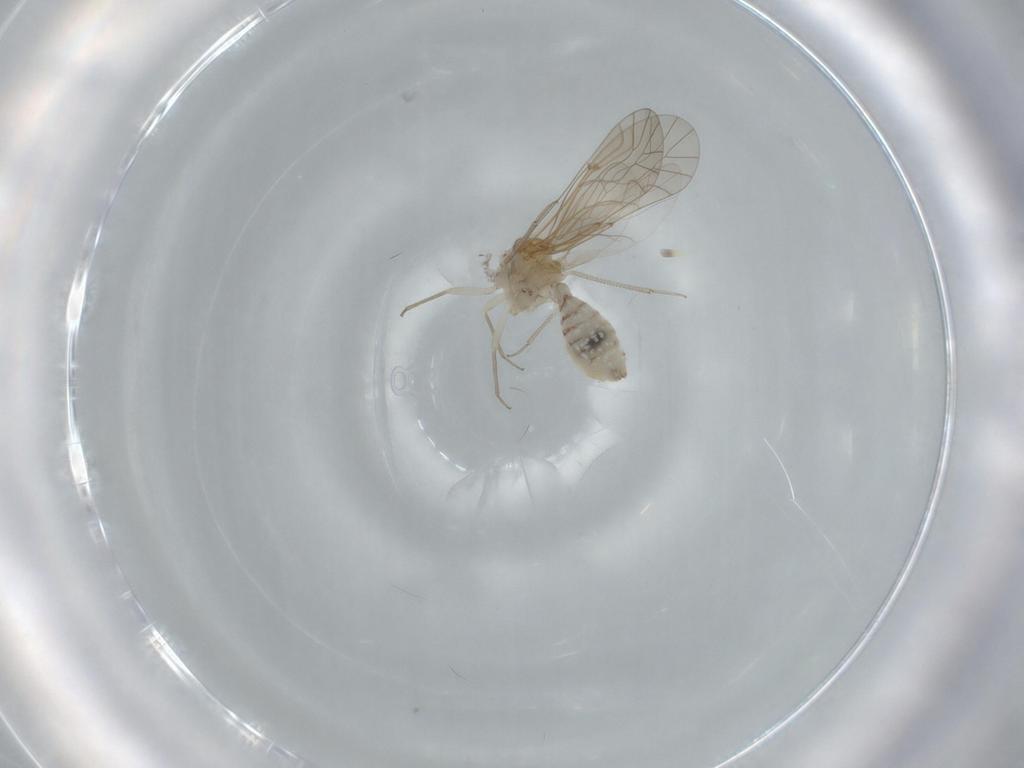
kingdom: Animalia
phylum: Arthropoda
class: Insecta
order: Psocodea
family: Lachesillidae
